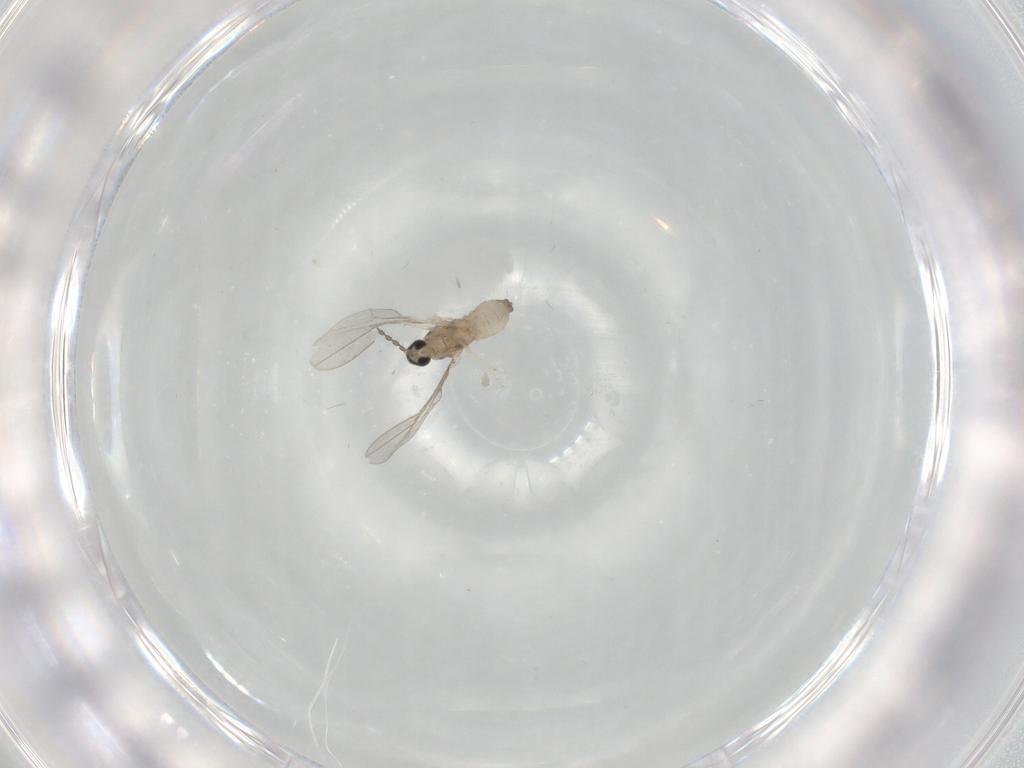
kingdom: Animalia
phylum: Arthropoda
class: Insecta
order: Diptera
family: Cecidomyiidae
